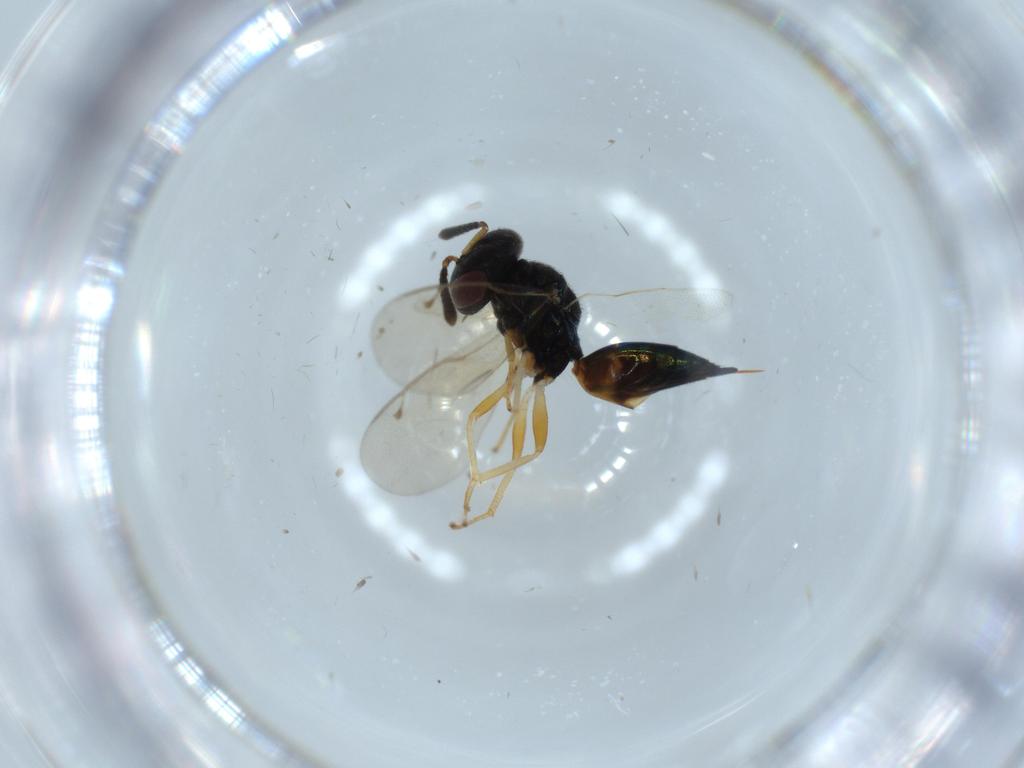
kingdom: Animalia
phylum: Arthropoda
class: Insecta
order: Hymenoptera
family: Pteromalidae
